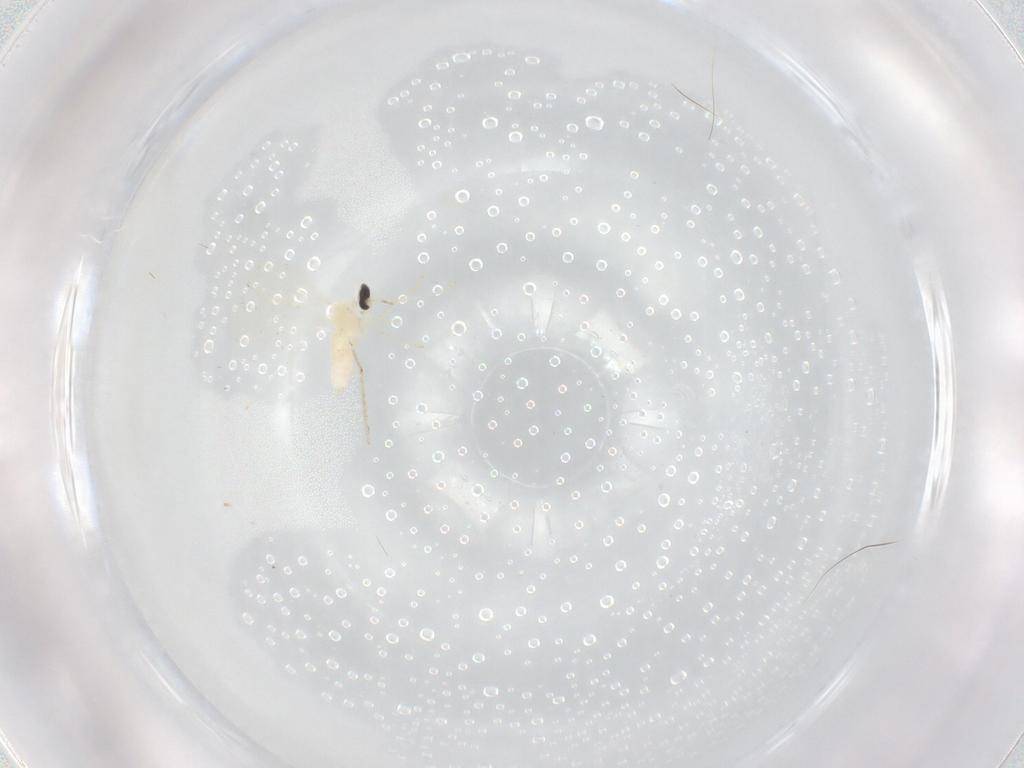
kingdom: Animalia
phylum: Arthropoda
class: Insecta
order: Diptera
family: Cecidomyiidae
